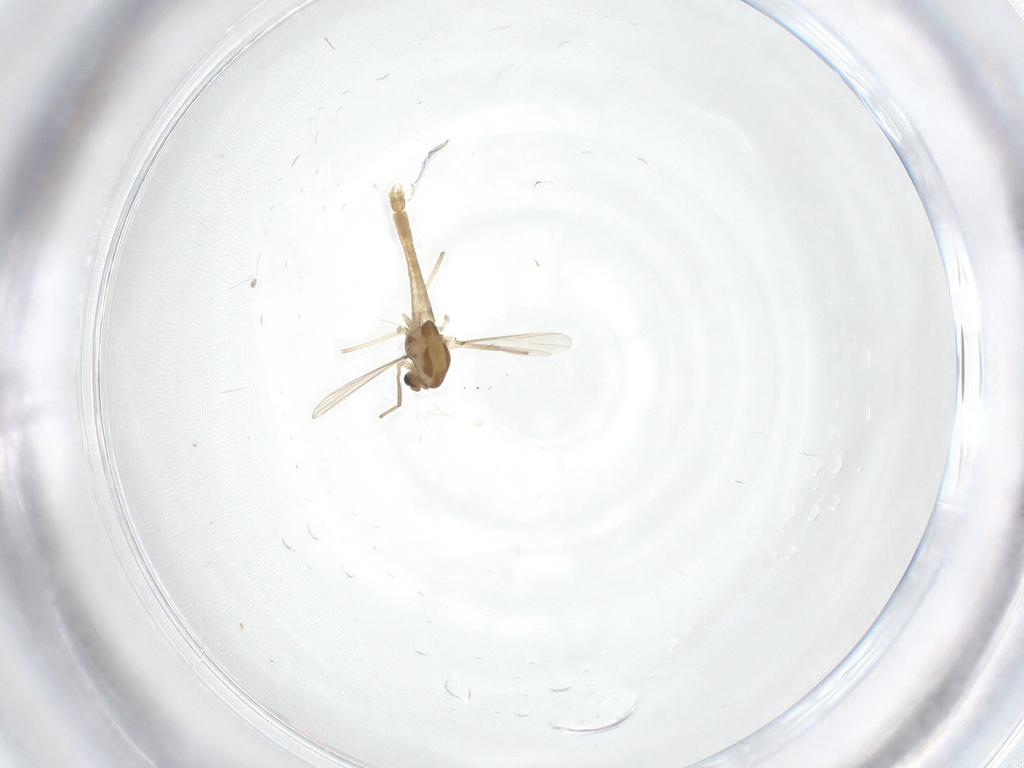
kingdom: Animalia
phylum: Arthropoda
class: Insecta
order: Diptera
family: Chironomidae
